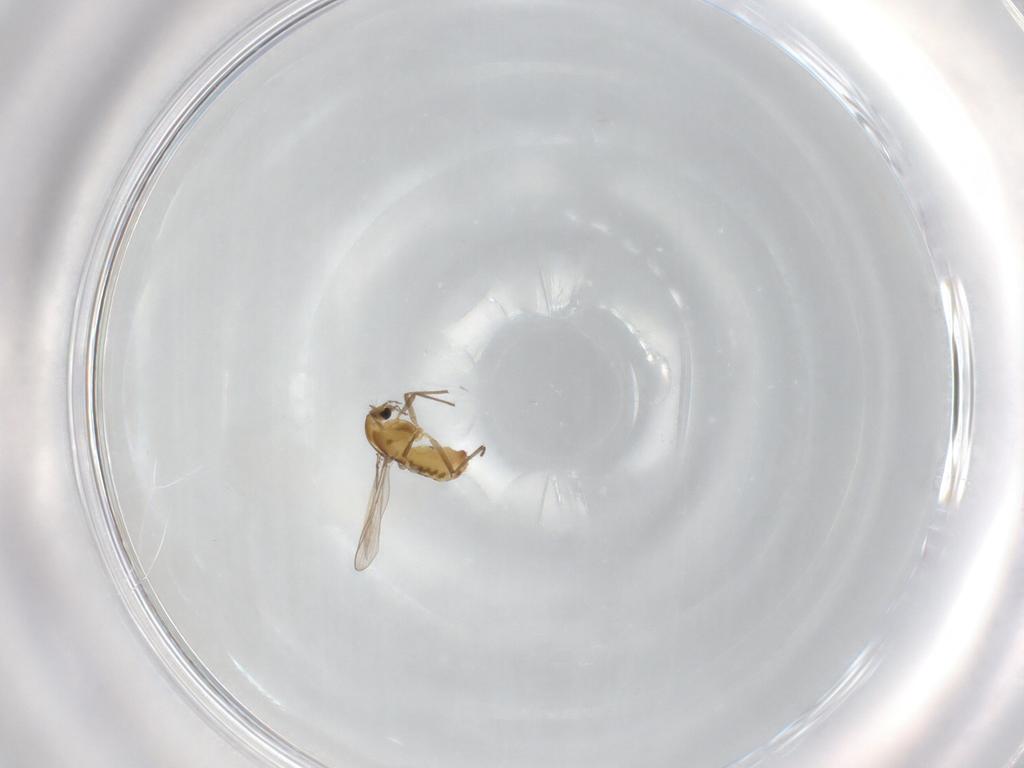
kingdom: Animalia
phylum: Arthropoda
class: Insecta
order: Diptera
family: Chironomidae
